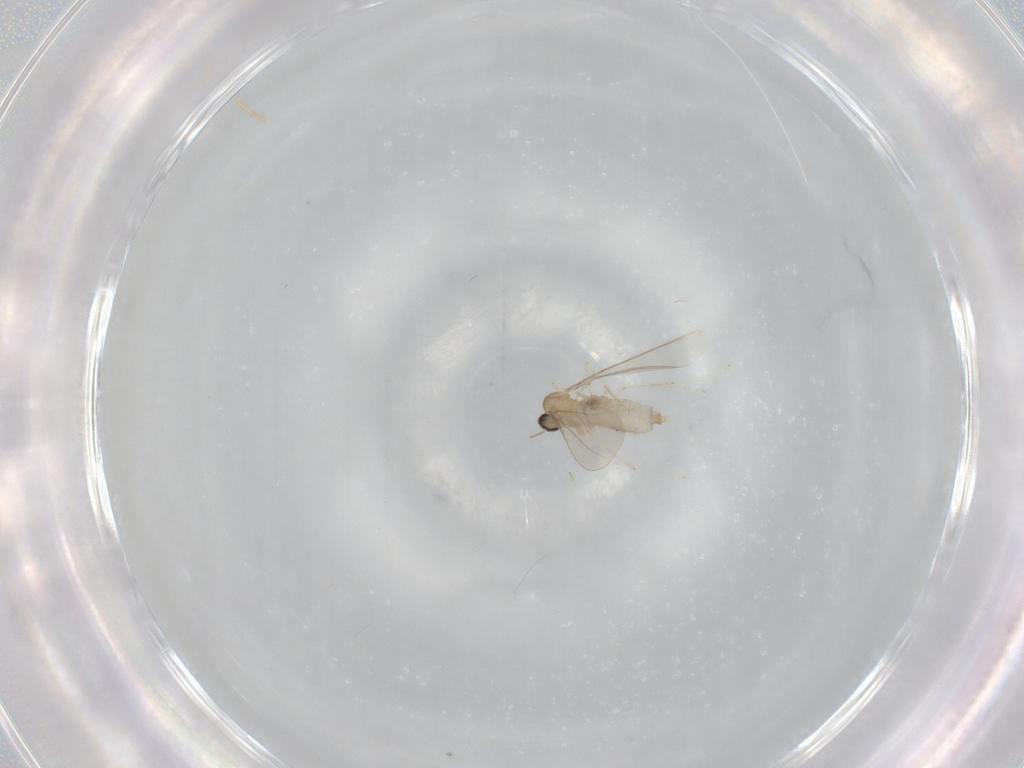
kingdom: Animalia
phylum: Arthropoda
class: Insecta
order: Diptera
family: Cecidomyiidae
